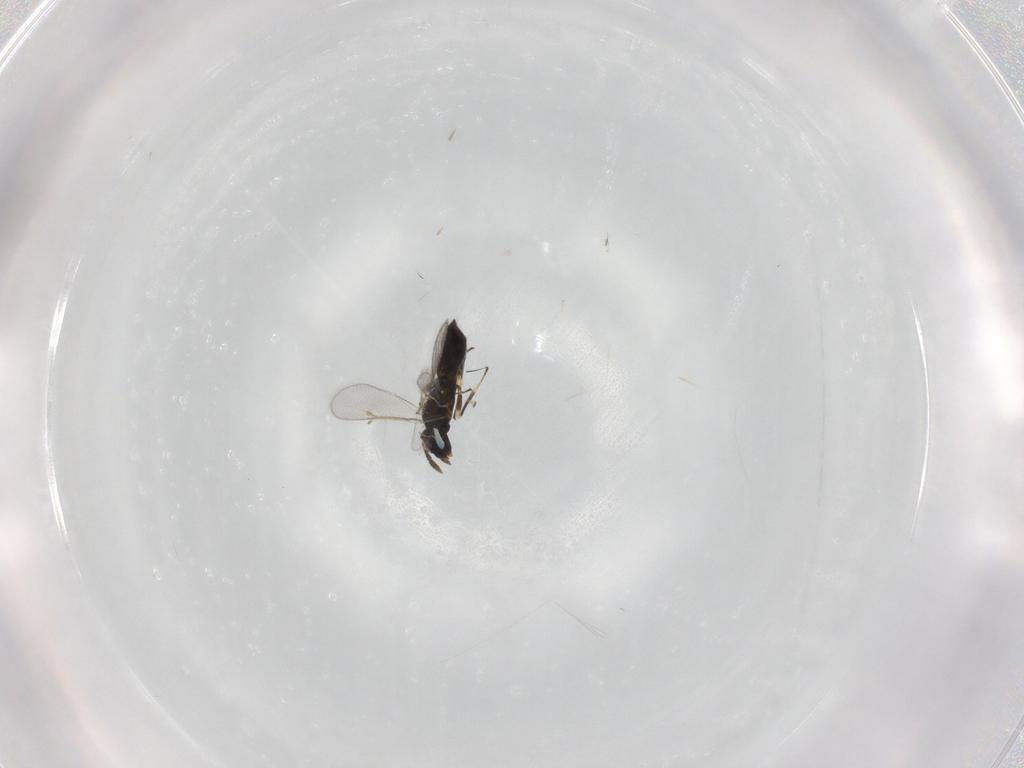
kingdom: Animalia
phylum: Arthropoda
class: Insecta
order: Hymenoptera
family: Eulophidae
